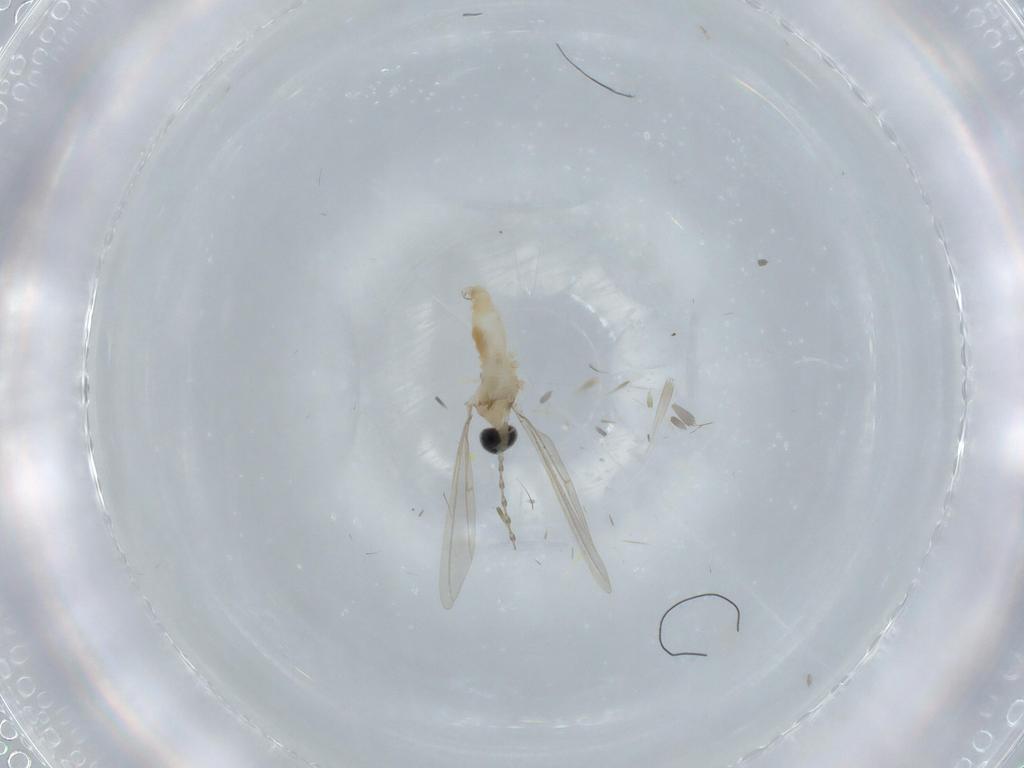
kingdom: Animalia
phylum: Arthropoda
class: Insecta
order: Diptera
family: Cecidomyiidae
